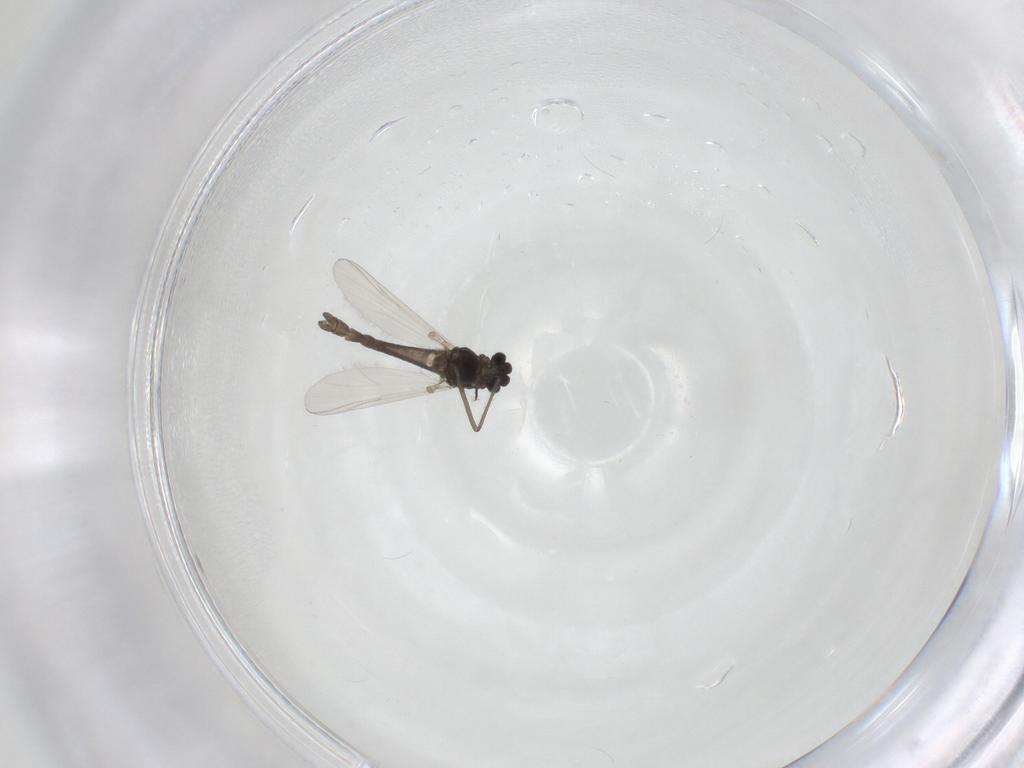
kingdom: Animalia
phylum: Arthropoda
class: Insecta
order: Diptera
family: Chironomidae
